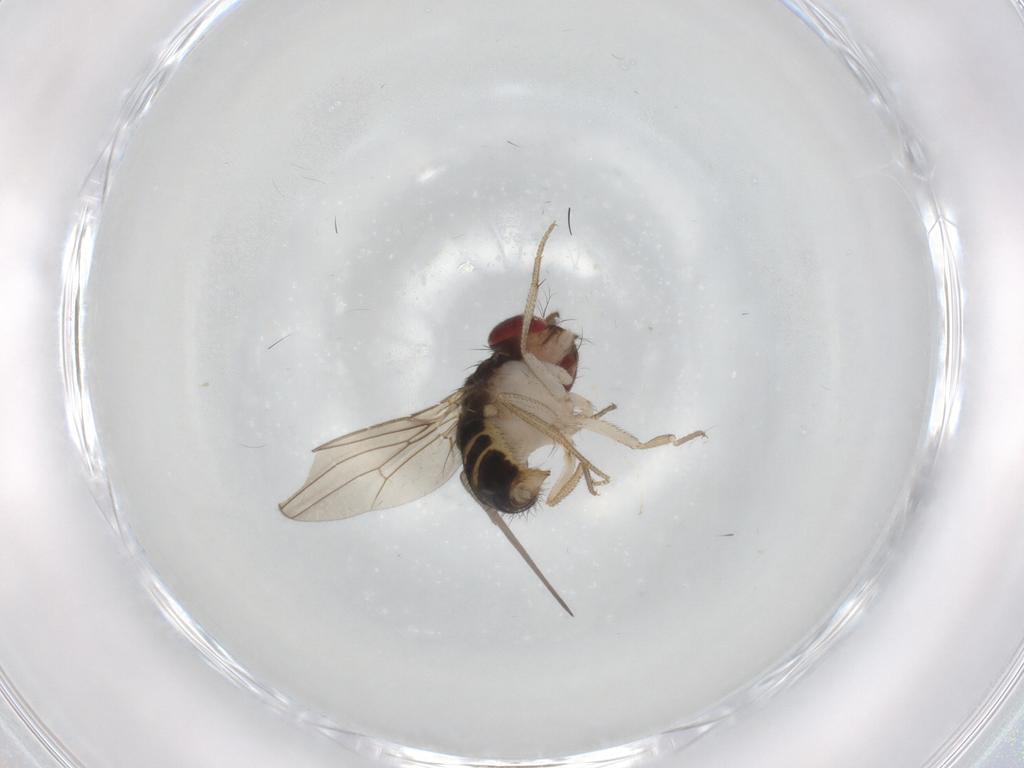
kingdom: Animalia
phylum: Arthropoda
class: Insecta
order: Diptera
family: Drosophilidae
